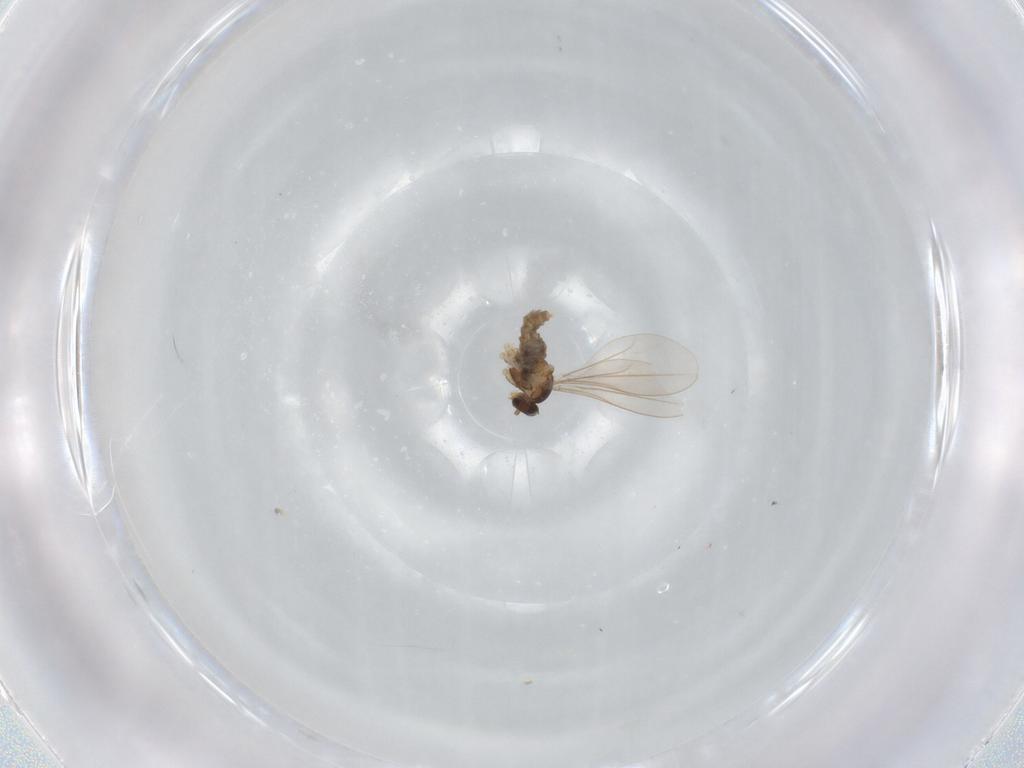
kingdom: Animalia
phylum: Arthropoda
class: Insecta
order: Diptera
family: Cecidomyiidae
